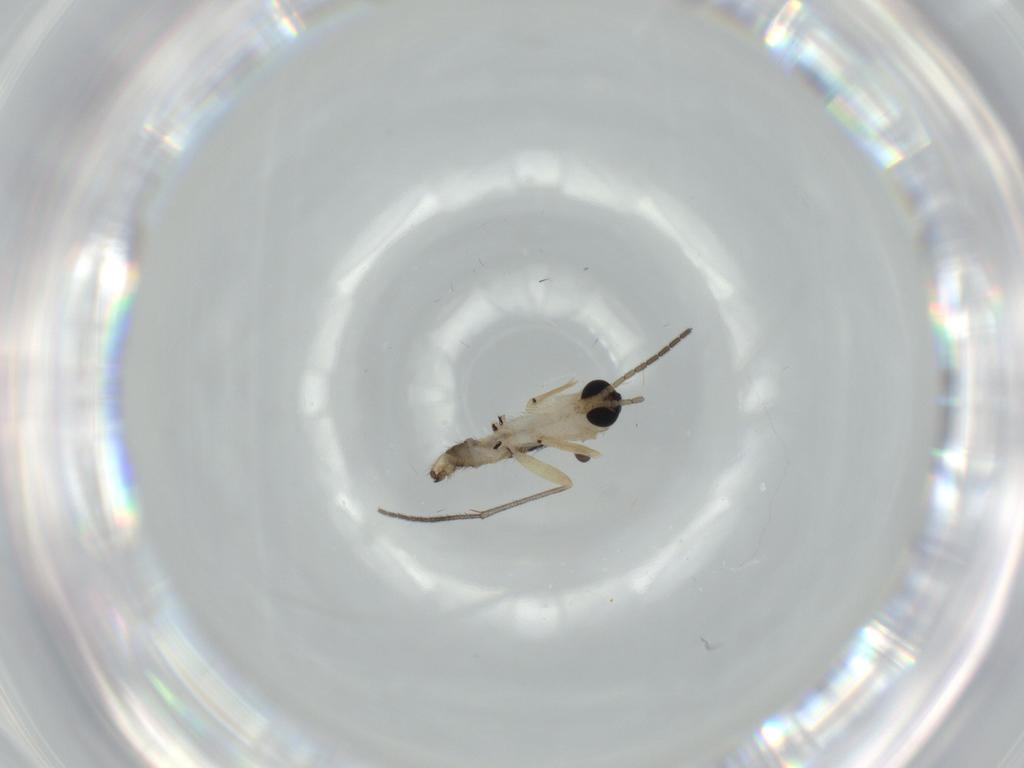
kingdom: Animalia
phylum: Arthropoda
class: Insecta
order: Diptera
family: Sciaridae
